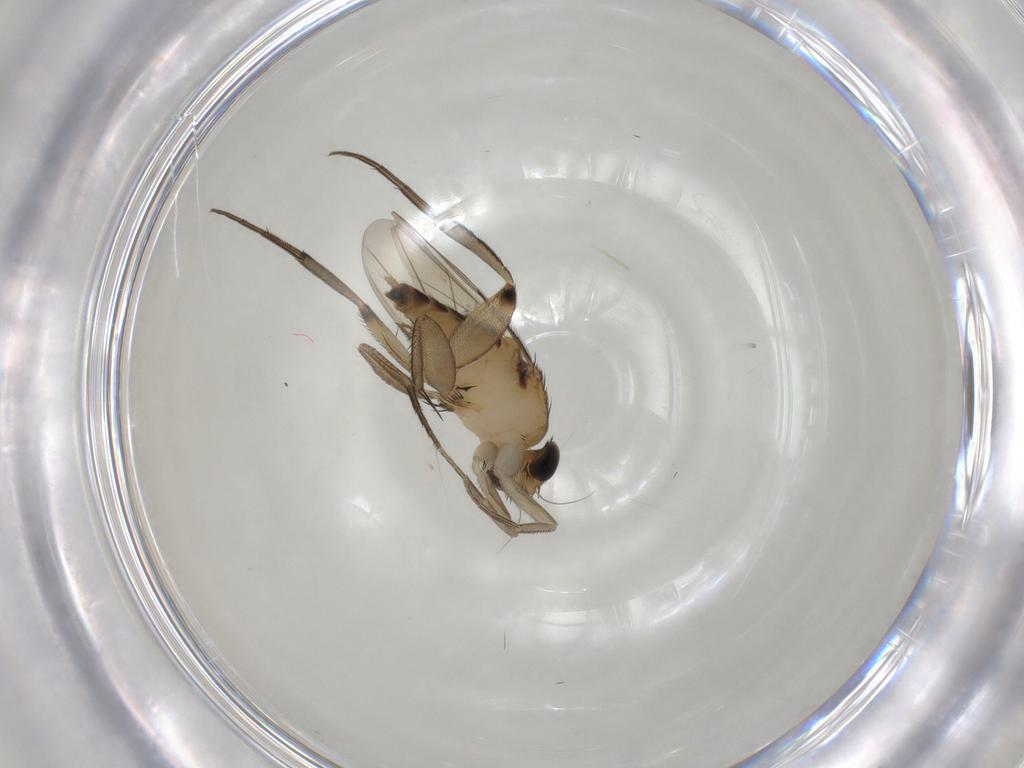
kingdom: Animalia
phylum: Arthropoda
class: Insecta
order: Diptera
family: Phoridae
